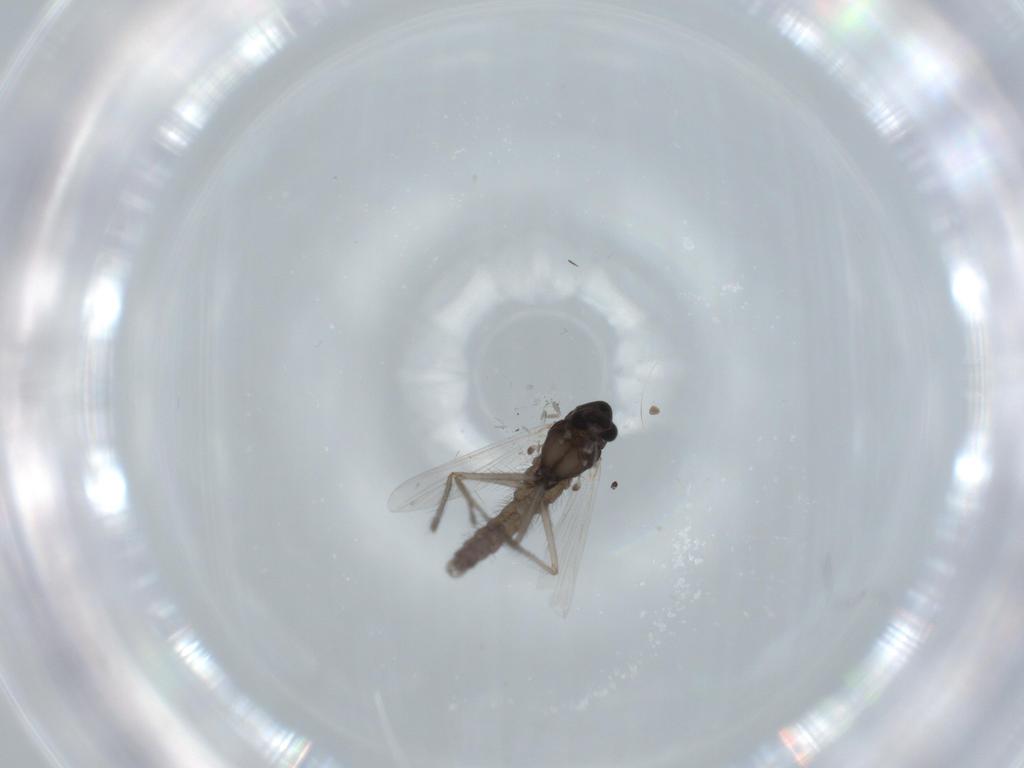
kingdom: Animalia
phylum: Arthropoda
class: Insecta
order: Diptera
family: Chironomidae
